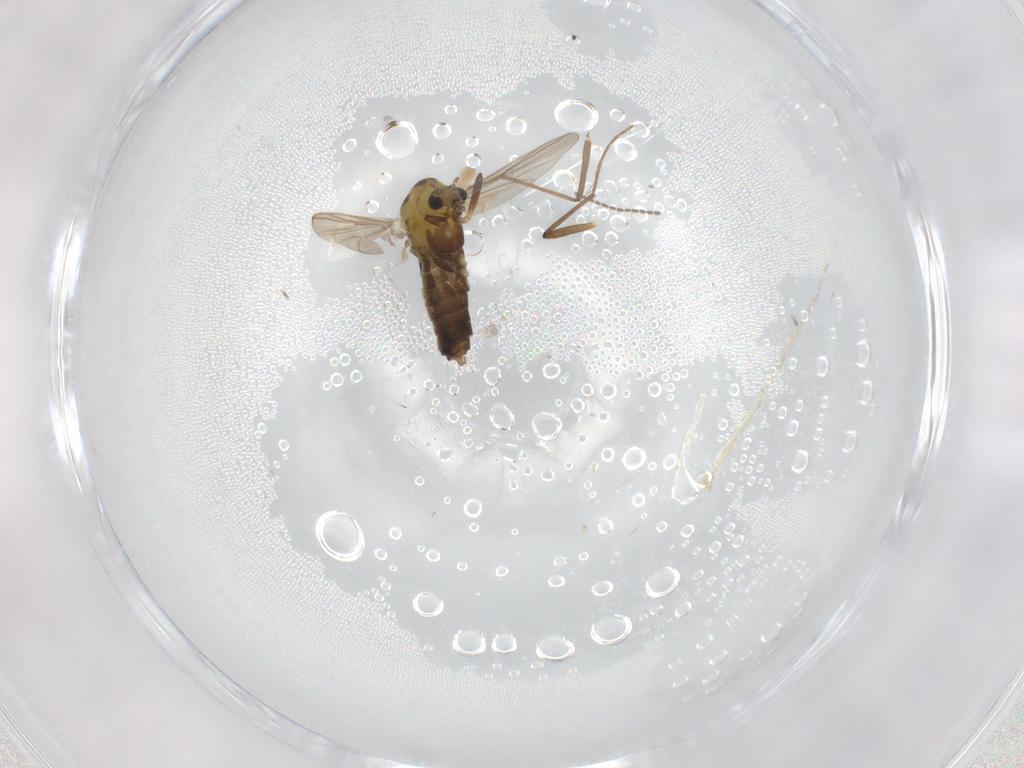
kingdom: Animalia
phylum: Arthropoda
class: Insecta
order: Diptera
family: Chironomidae
